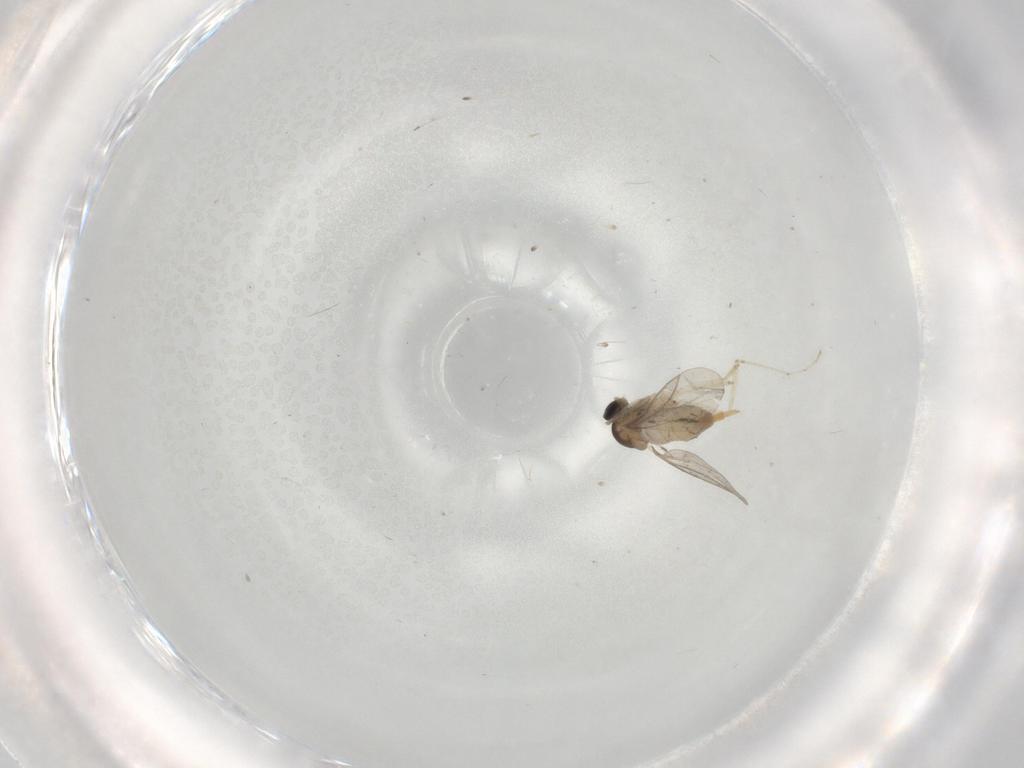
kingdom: Animalia
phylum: Arthropoda
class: Insecta
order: Diptera
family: Cecidomyiidae
